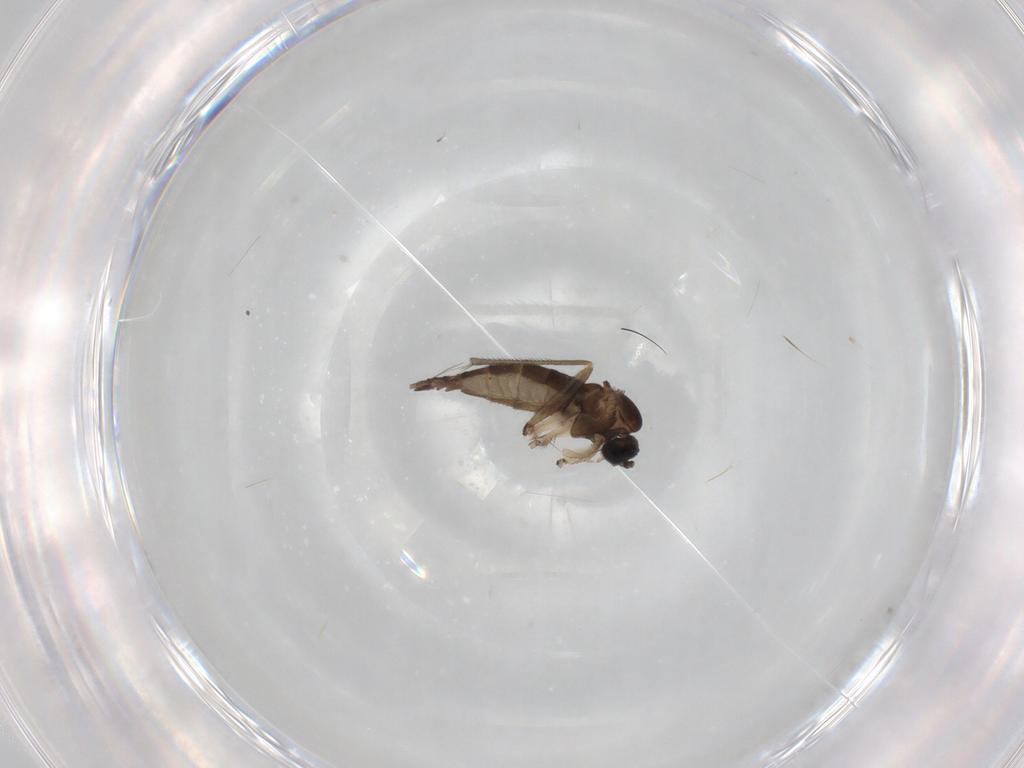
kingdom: Animalia
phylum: Arthropoda
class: Insecta
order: Diptera
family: Sciaridae
